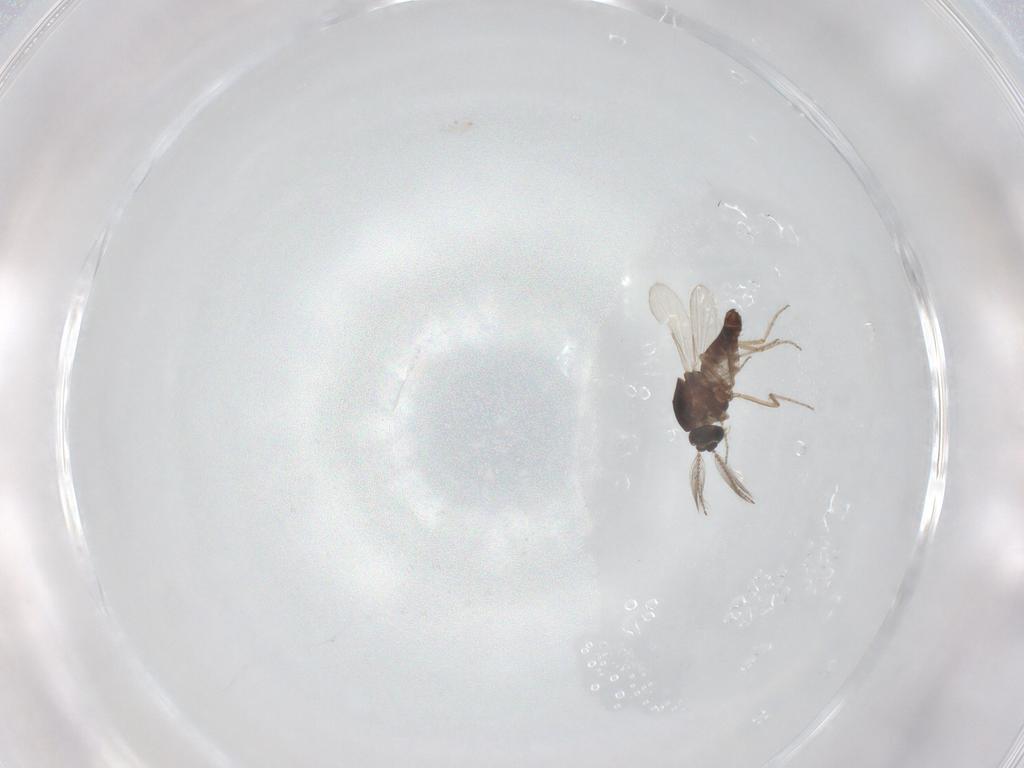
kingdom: Animalia
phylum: Arthropoda
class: Insecta
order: Diptera
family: Ceratopogonidae
